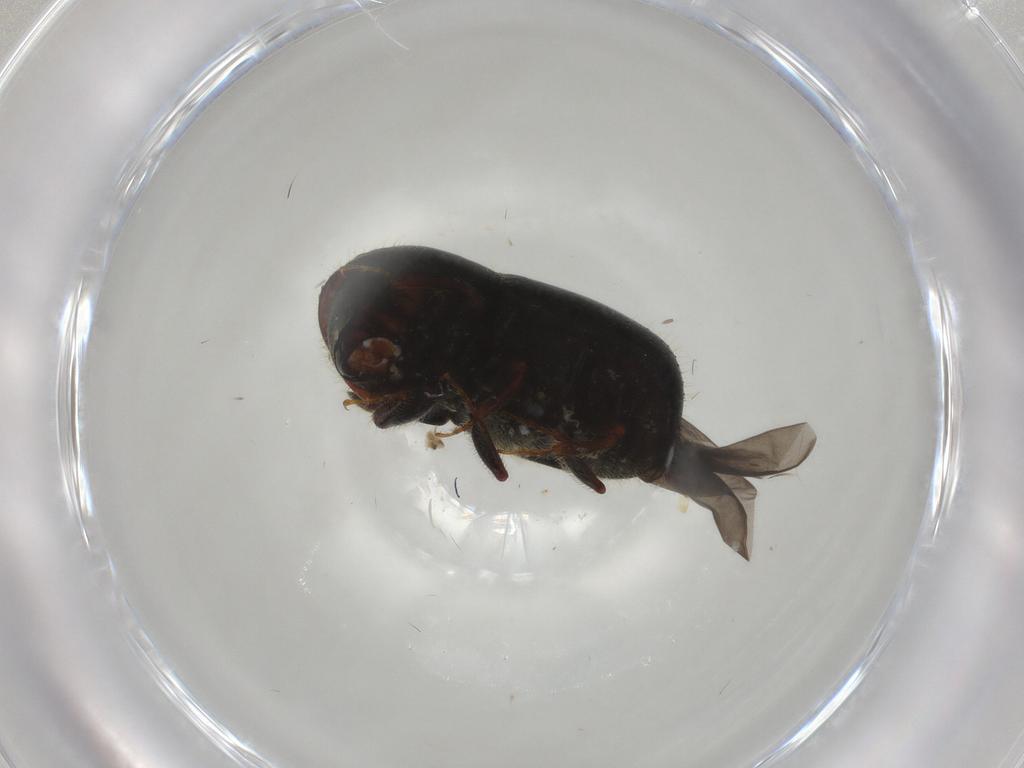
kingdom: Animalia
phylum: Arthropoda
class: Insecta
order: Coleoptera
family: Curculionidae
